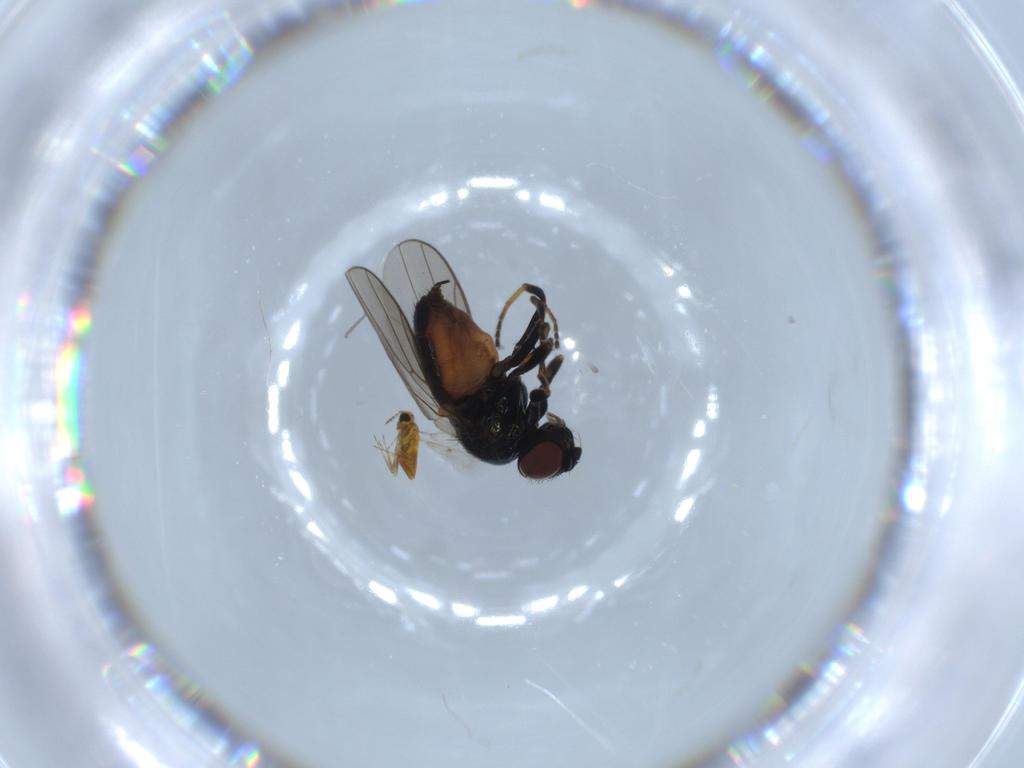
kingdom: Animalia
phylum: Arthropoda
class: Insecta
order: Diptera
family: Chloropidae
